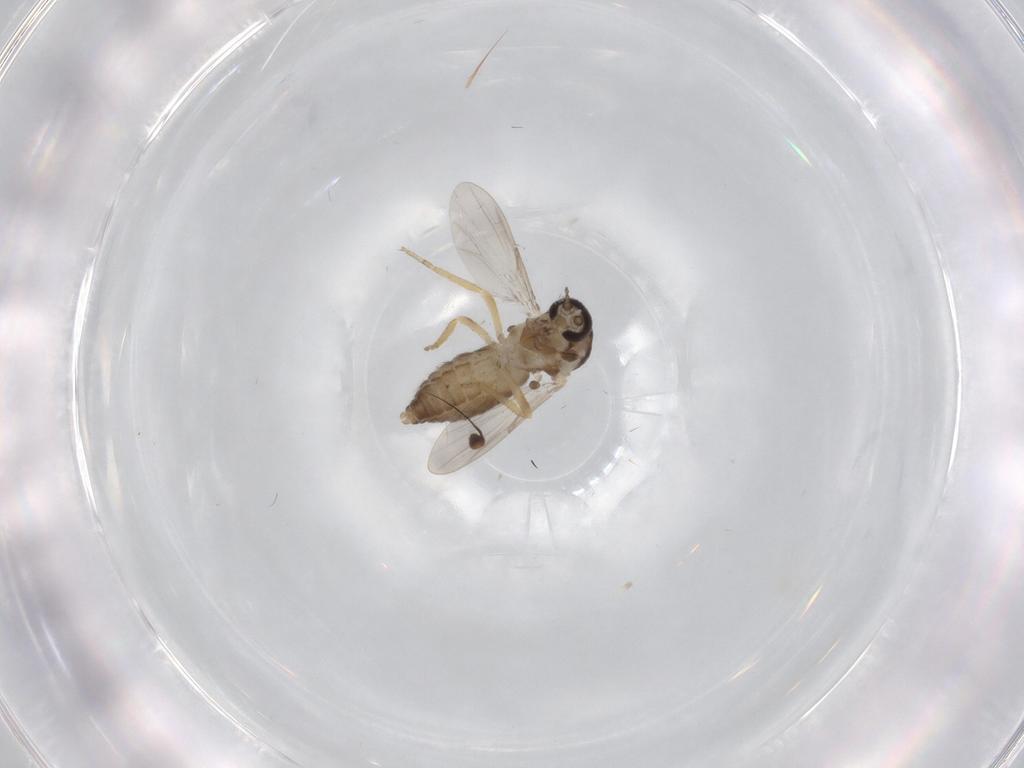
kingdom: Animalia
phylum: Arthropoda
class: Insecta
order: Diptera
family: Ceratopogonidae
